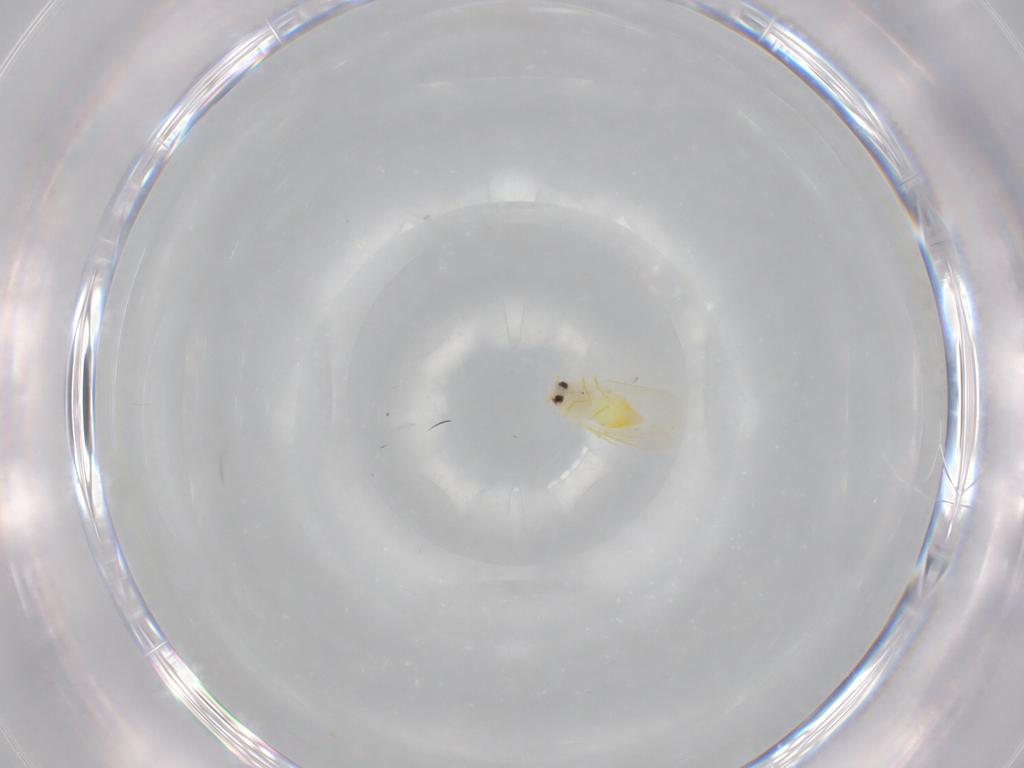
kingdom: Animalia
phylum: Arthropoda
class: Insecta
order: Hemiptera
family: Aleyrodidae
